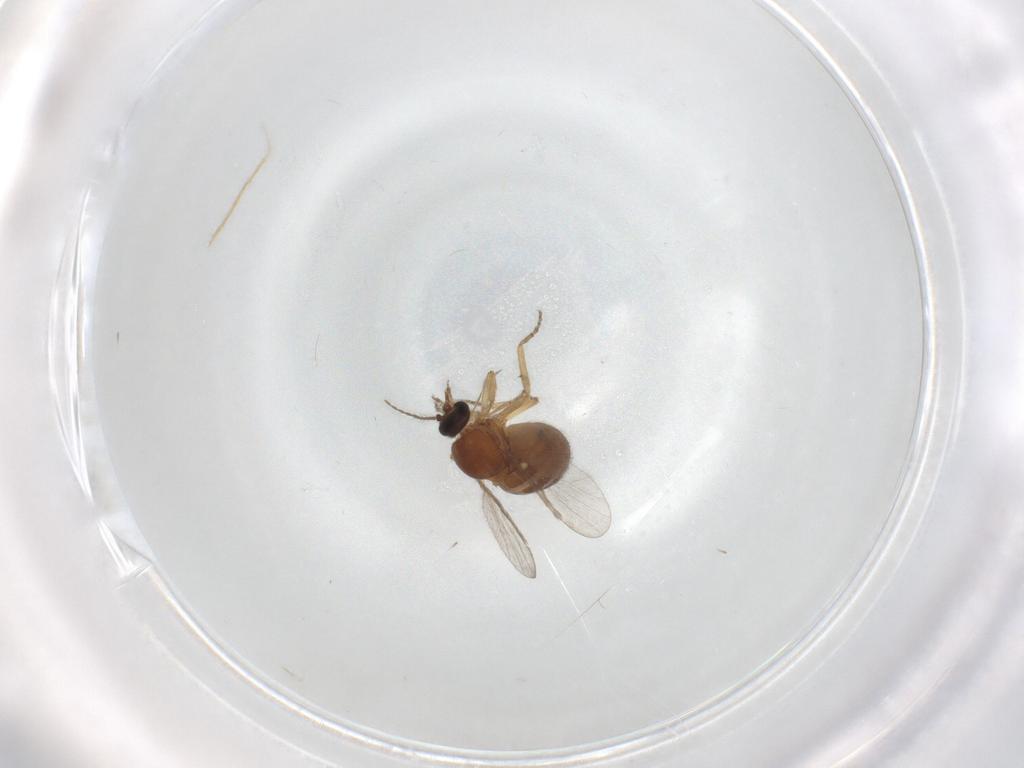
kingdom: Animalia
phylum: Arthropoda
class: Insecta
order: Diptera
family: Ceratopogonidae
